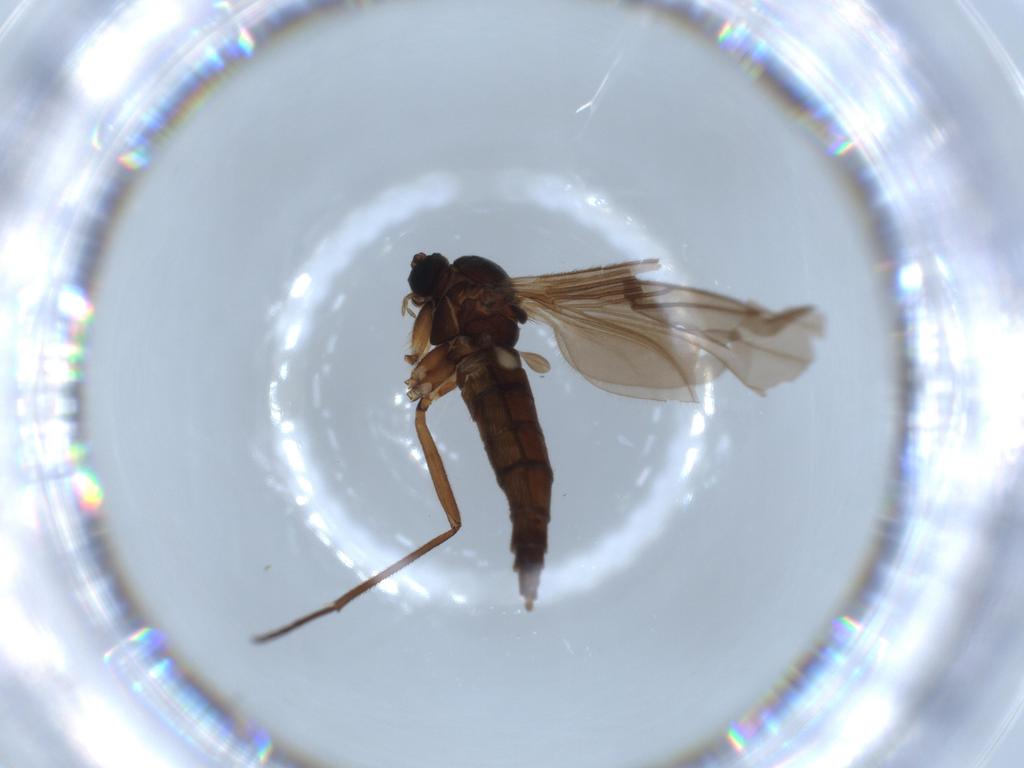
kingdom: Animalia
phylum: Arthropoda
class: Insecta
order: Diptera
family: Sciaridae
